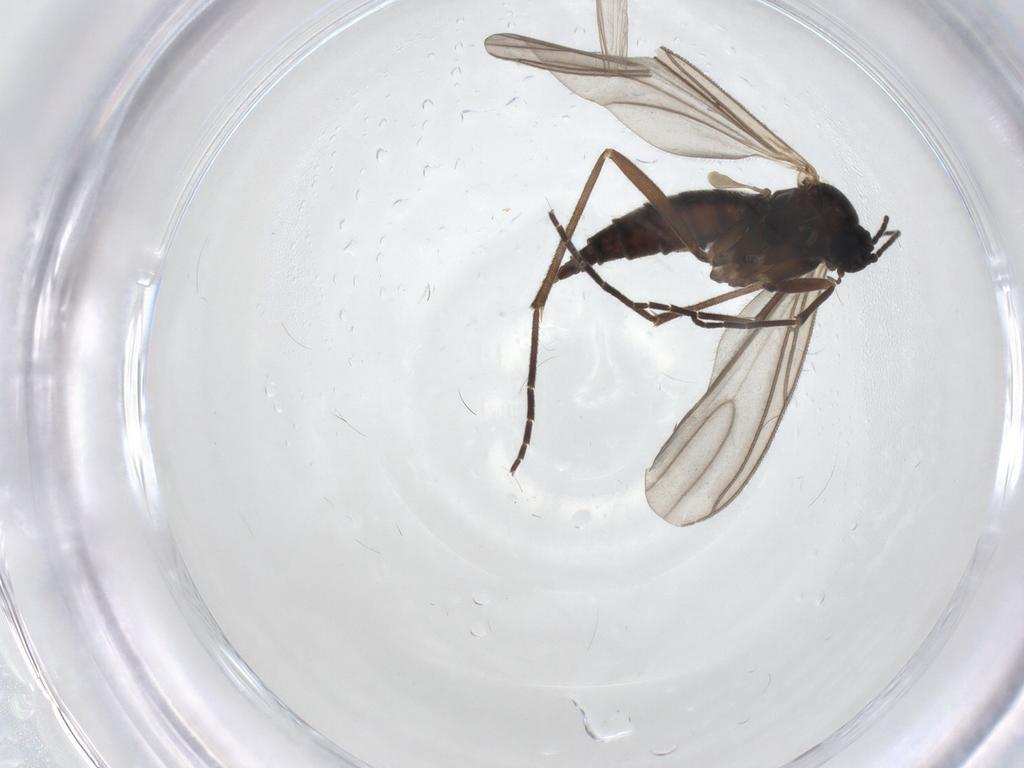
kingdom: Animalia
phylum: Arthropoda
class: Insecta
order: Diptera
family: Sciaridae
